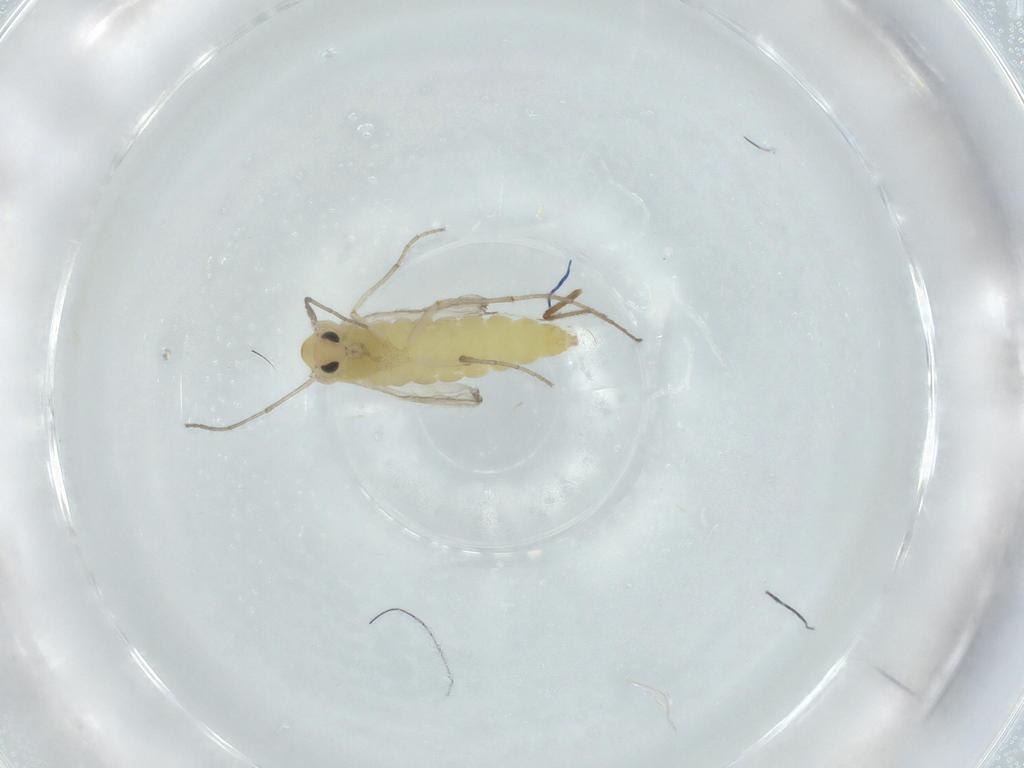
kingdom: Animalia
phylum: Arthropoda
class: Insecta
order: Diptera
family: Chironomidae
